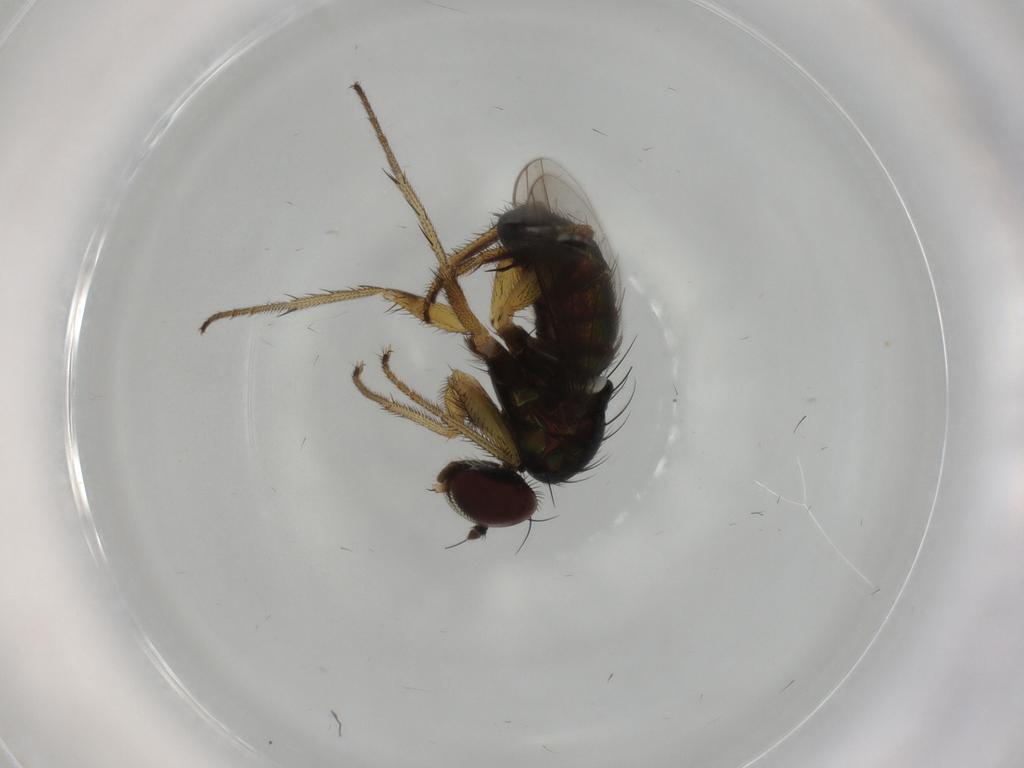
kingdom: Animalia
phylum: Arthropoda
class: Insecta
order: Diptera
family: Dolichopodidae
